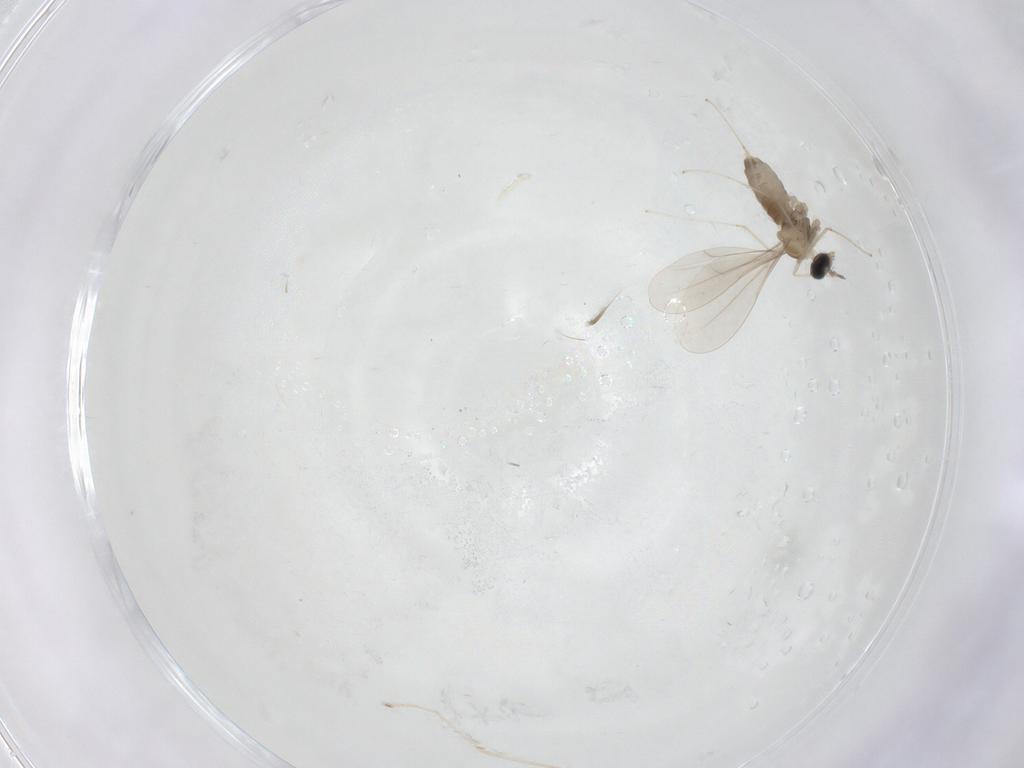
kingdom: Animalia
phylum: Arthropoda
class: Insecta
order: Diptera
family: Cecidomyiidae
